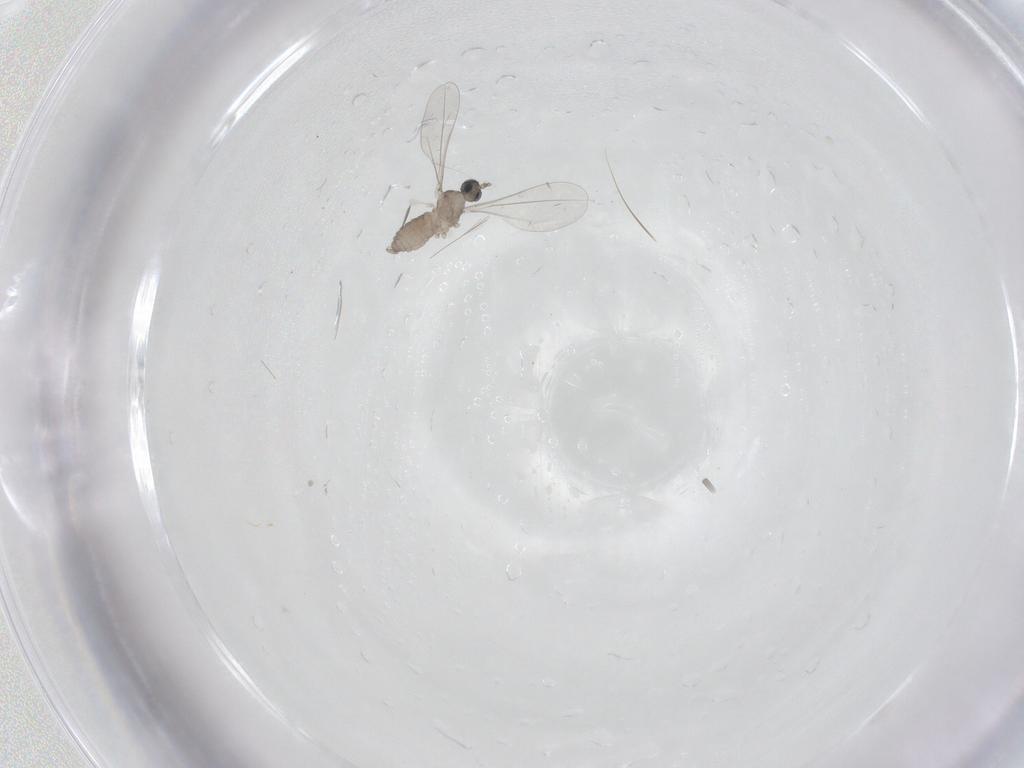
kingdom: Animalia
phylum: Arthropoda
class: Insecta
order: Diptera
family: Cecidomyiidae
